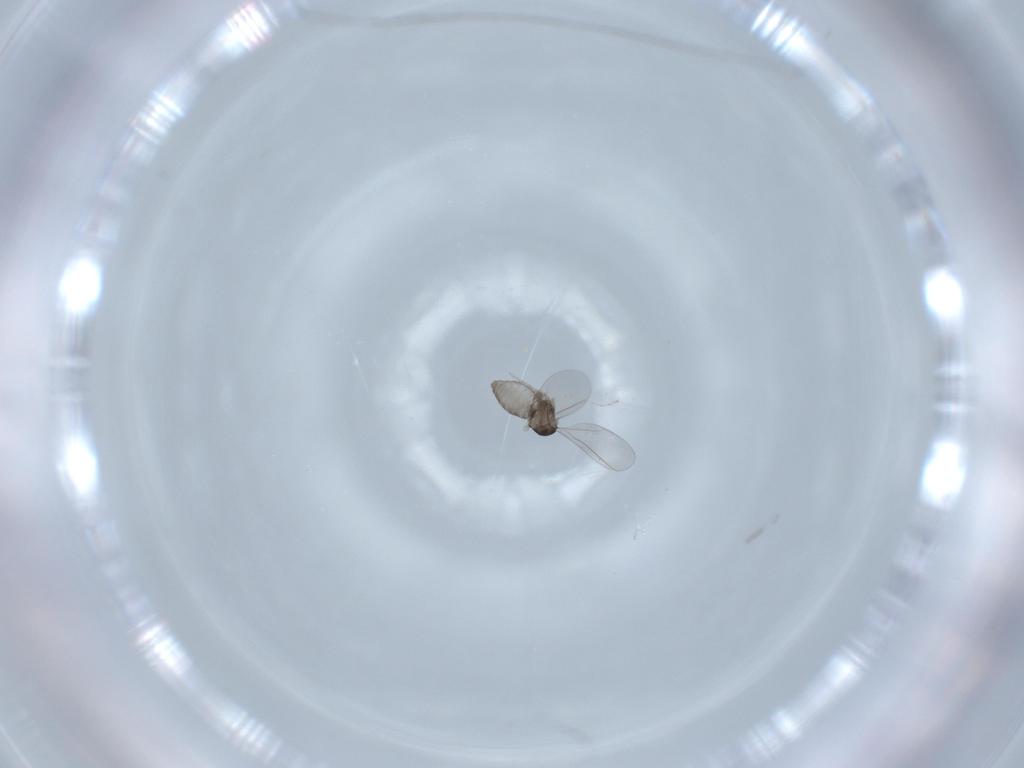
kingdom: Animalia
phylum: Arthropoda
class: Insecta
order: Diptera
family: Cecidomyiidae
